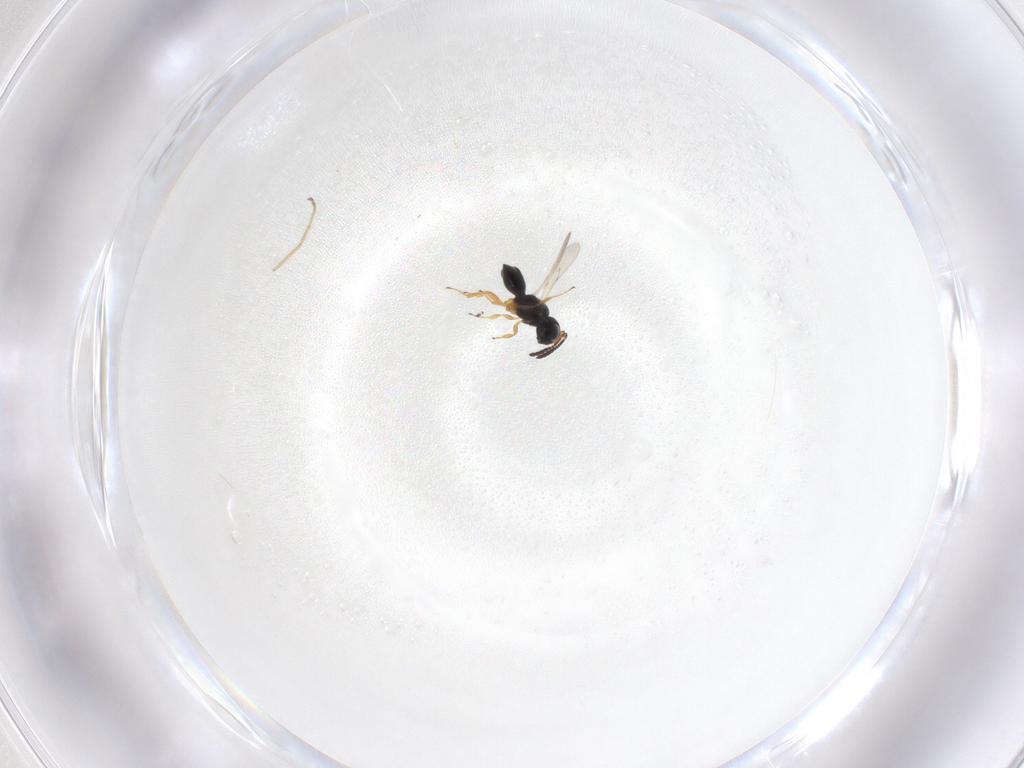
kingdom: Animalia
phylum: Arthropoda
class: Insecta
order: Hymenoptera
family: Scelionidae
